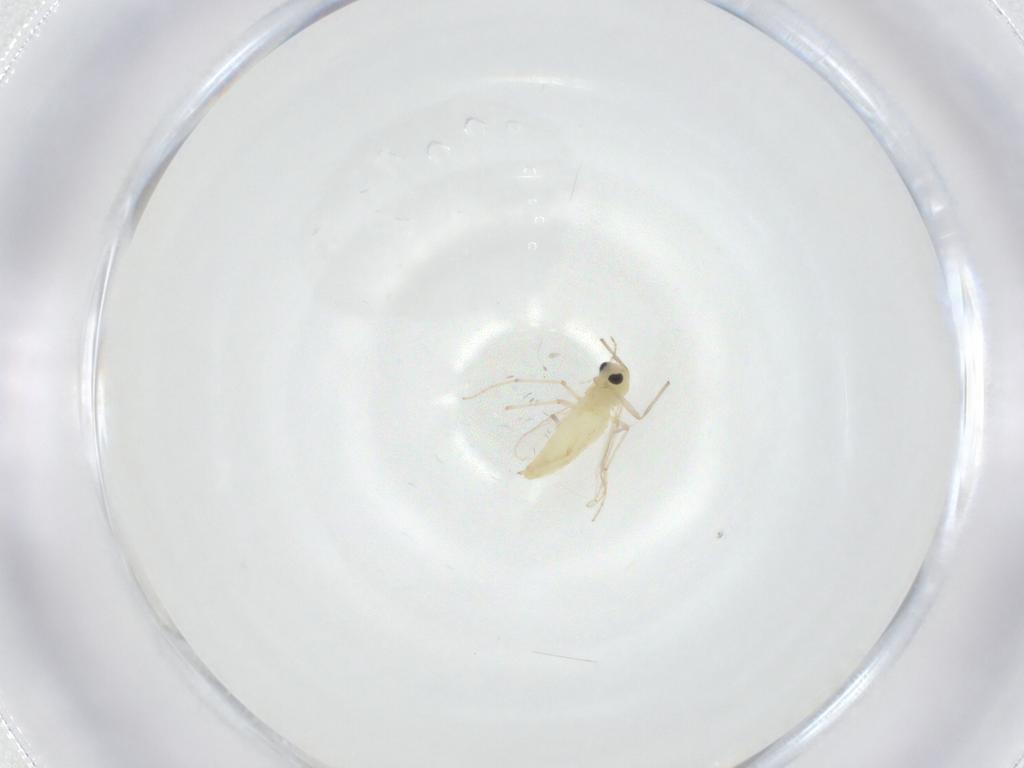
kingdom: Animalia
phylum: Arthropoda
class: Insecta
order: Diptera
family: Chironomidae
